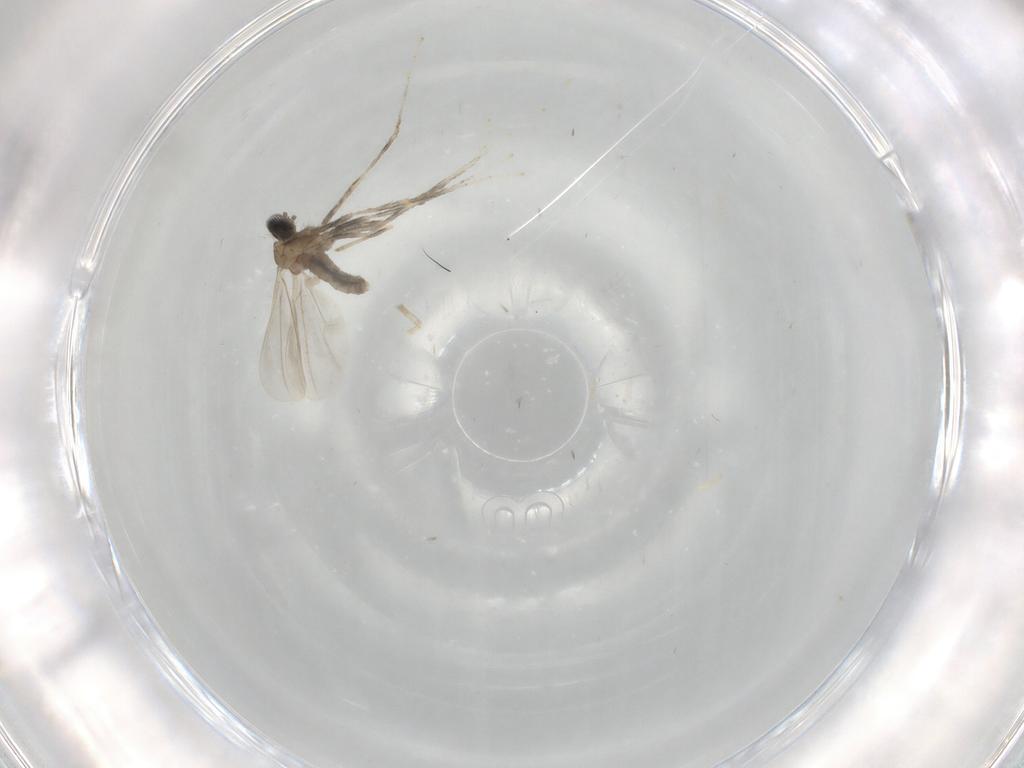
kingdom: Animalia
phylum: Arthropoda
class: Insecta
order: Diptera
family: Cecidomyiidae
